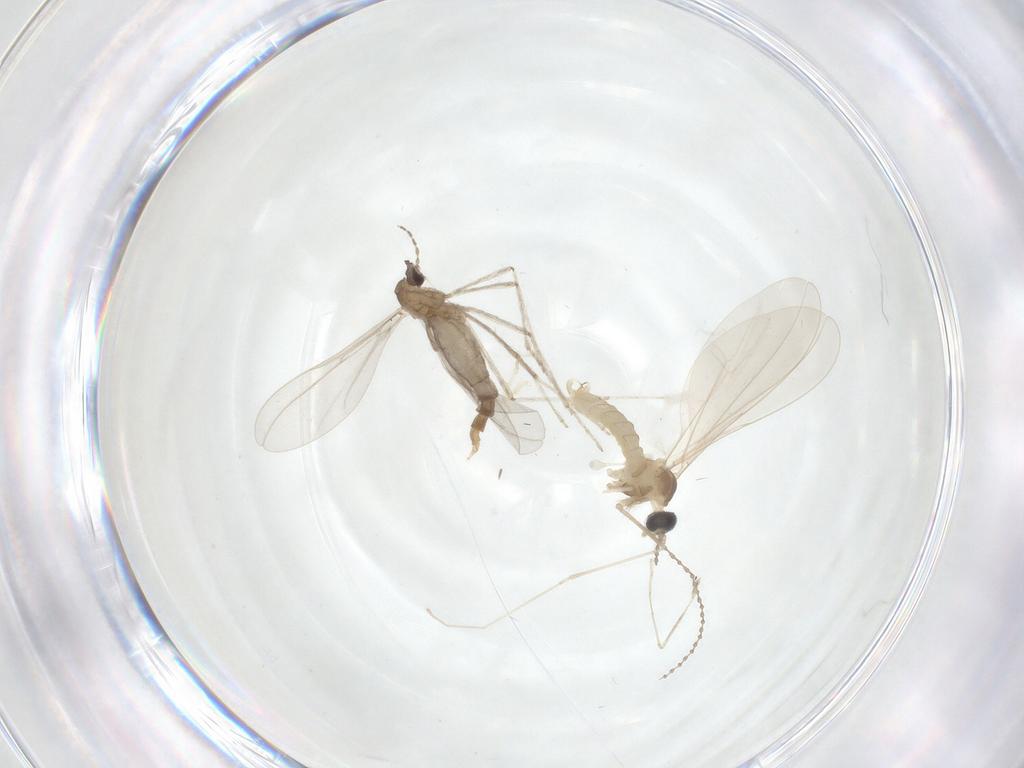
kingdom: Animalia
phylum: Arthropoda
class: Insecta
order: Diptera
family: Cecidomyiidae
